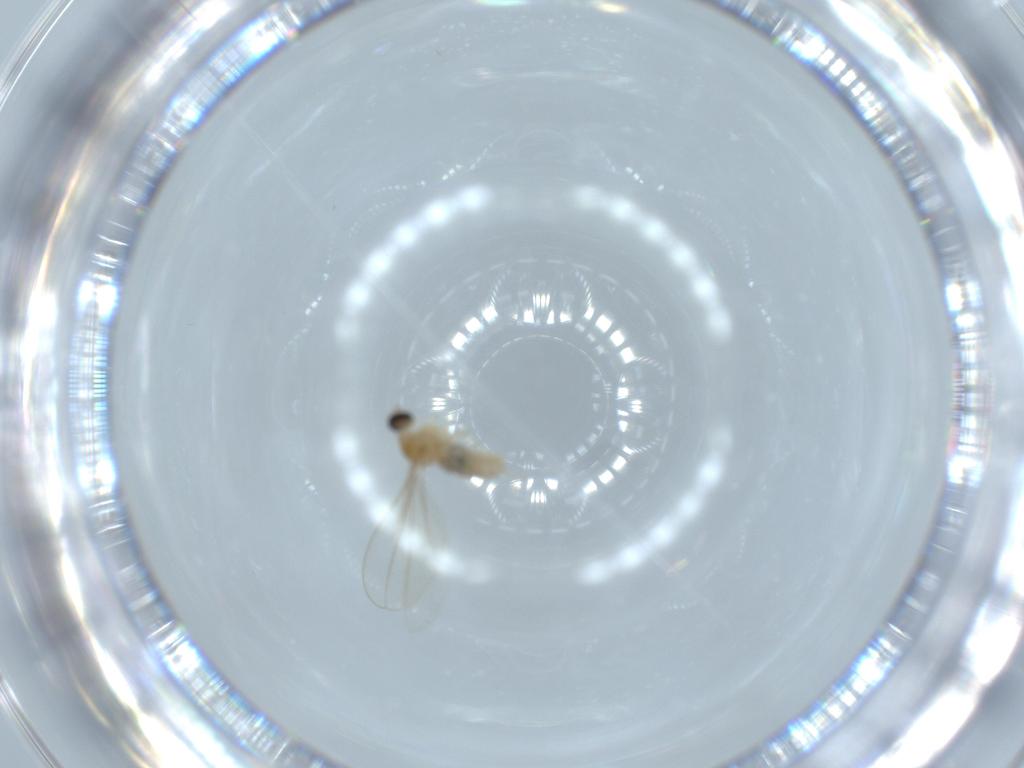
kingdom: Animalia
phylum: Arthropoda
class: Insecta
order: Diptera
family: Cecidomyiidae
